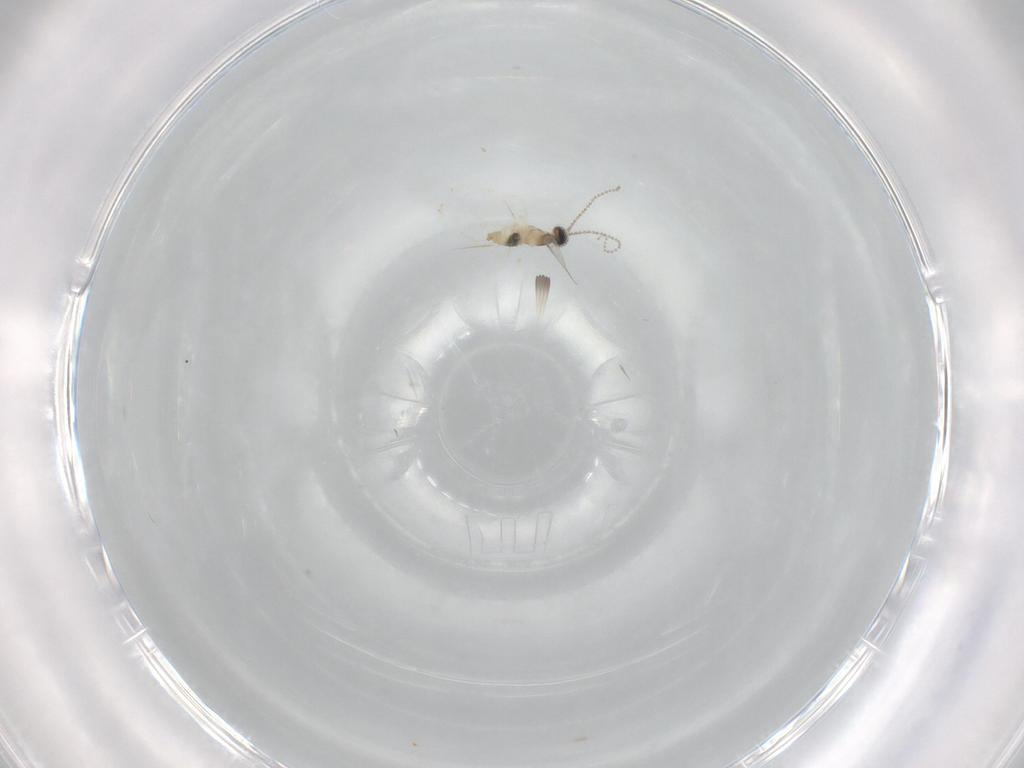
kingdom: Animalia
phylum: Arthropoda
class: Insecta
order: Diptera
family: Cecidomyiidae
